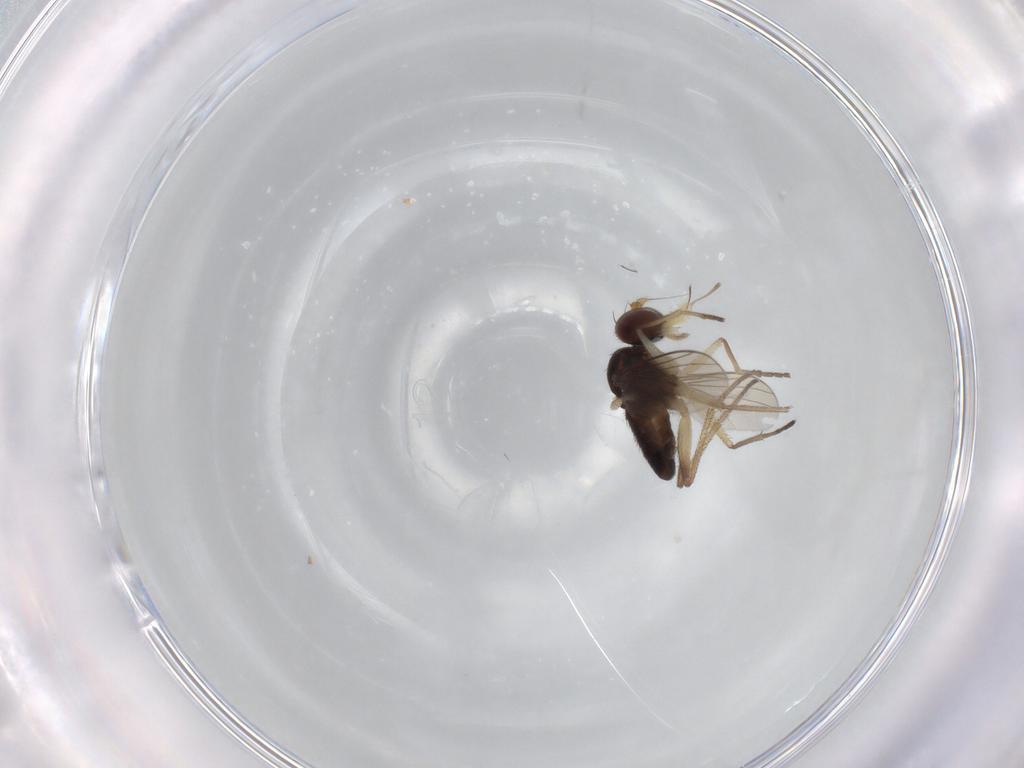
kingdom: Animalia
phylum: Arthropoda
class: Insecta
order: Diptera
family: Dolichopodidae
